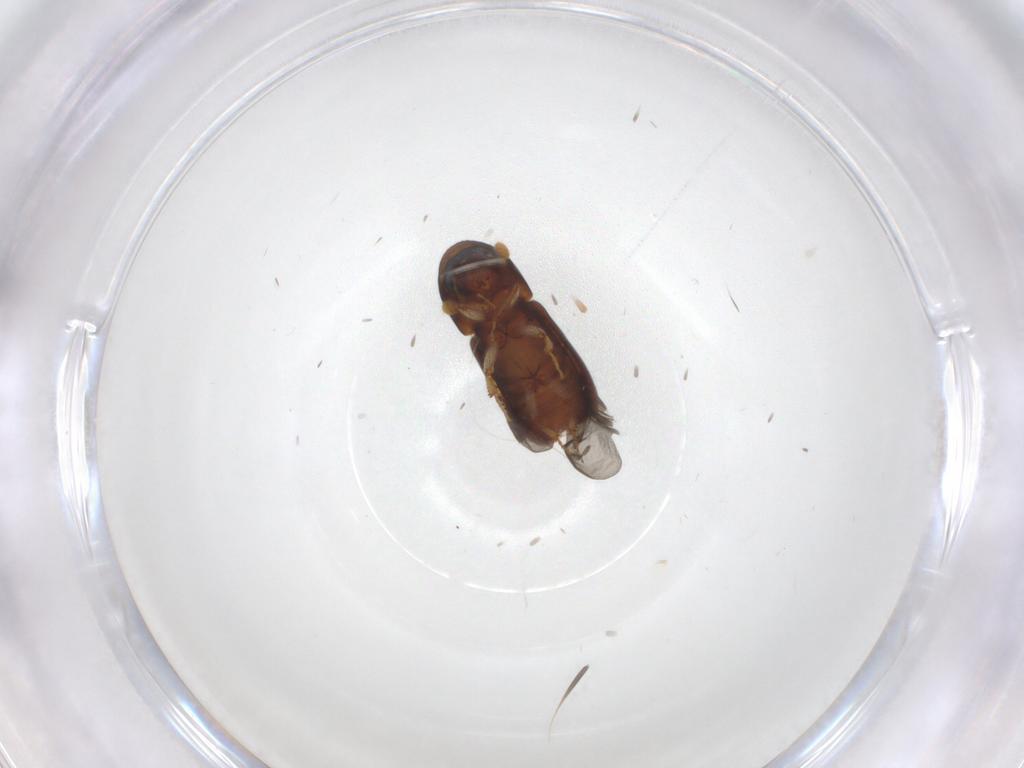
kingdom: Animalia
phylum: Arthropoda
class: Insecta
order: Coleoptera
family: Curculionidae
